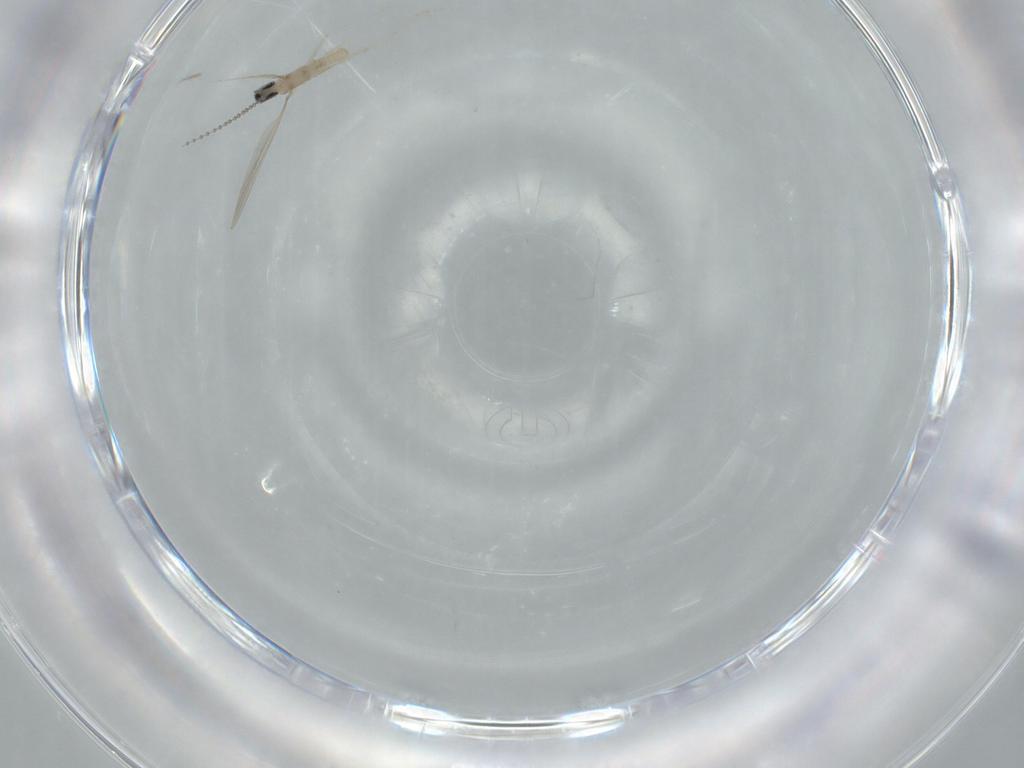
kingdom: Animalia
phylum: Arthropoda
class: Insecta
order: Diptera
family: Cecidomyiidae
